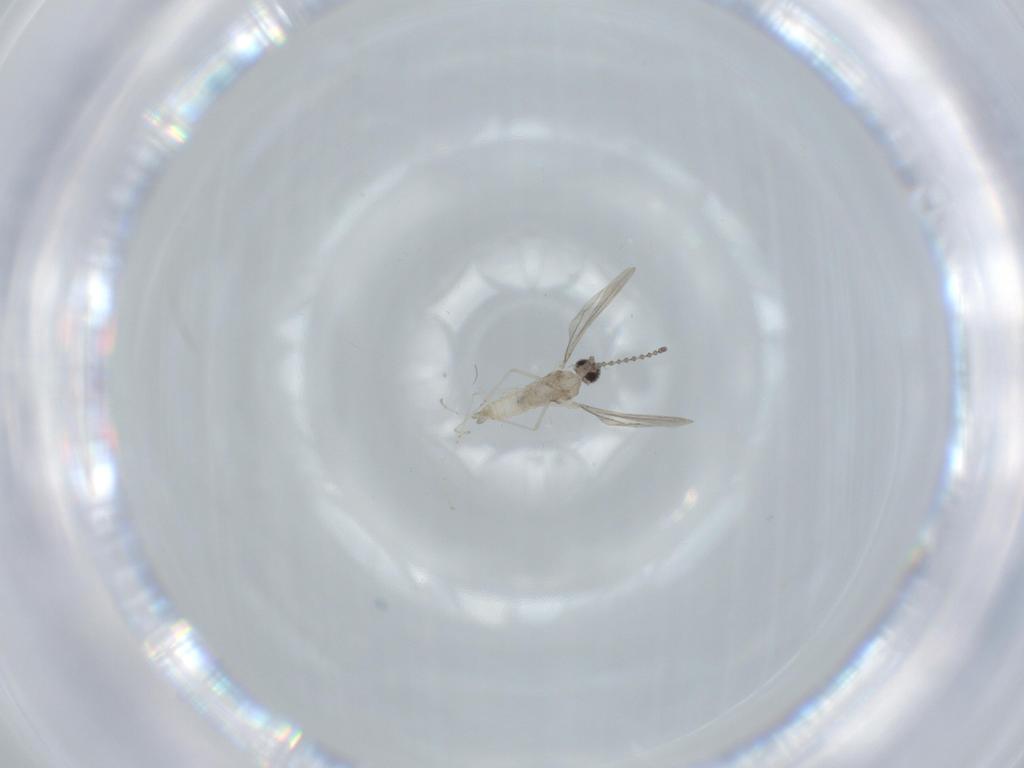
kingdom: Animalia
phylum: Arthropoda
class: Insecta
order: Diptera
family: Cecidomyiidae
